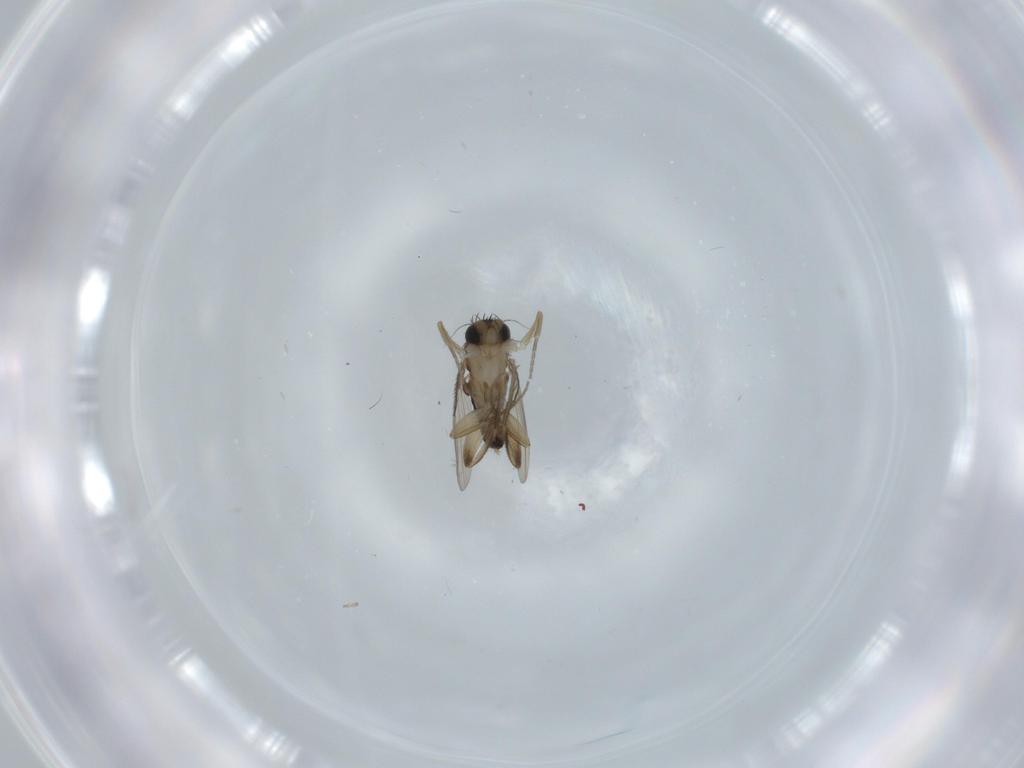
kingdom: Animalia
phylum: Arthropoda
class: Insecta
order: Diptera
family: Phoridae
